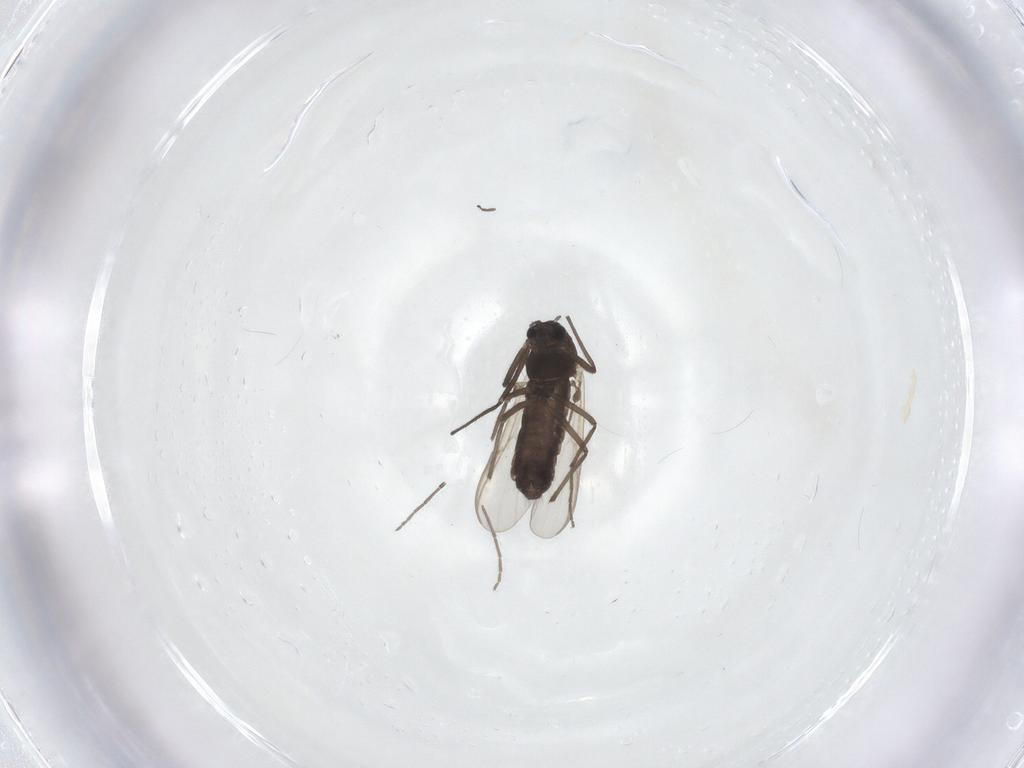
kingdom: Animalia
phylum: Arthropoda
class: Insecta
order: Diptera
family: Chironomidae
